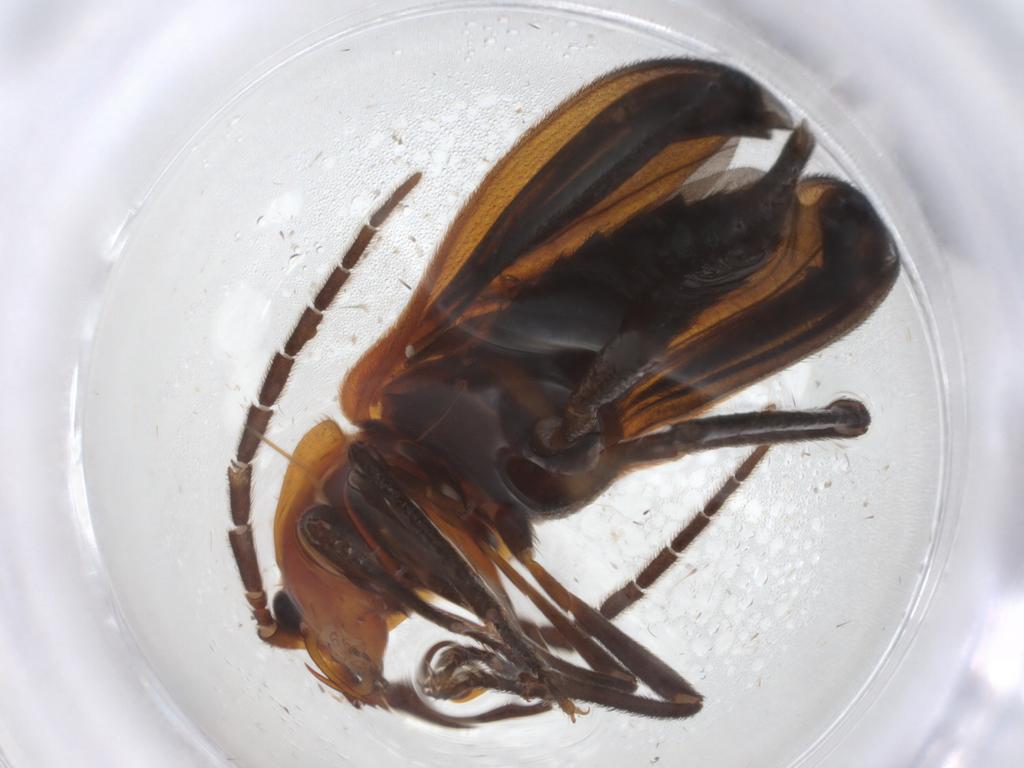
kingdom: Animalia
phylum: Arthropoda
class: Insecta
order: Coleoptera
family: Lycidae
